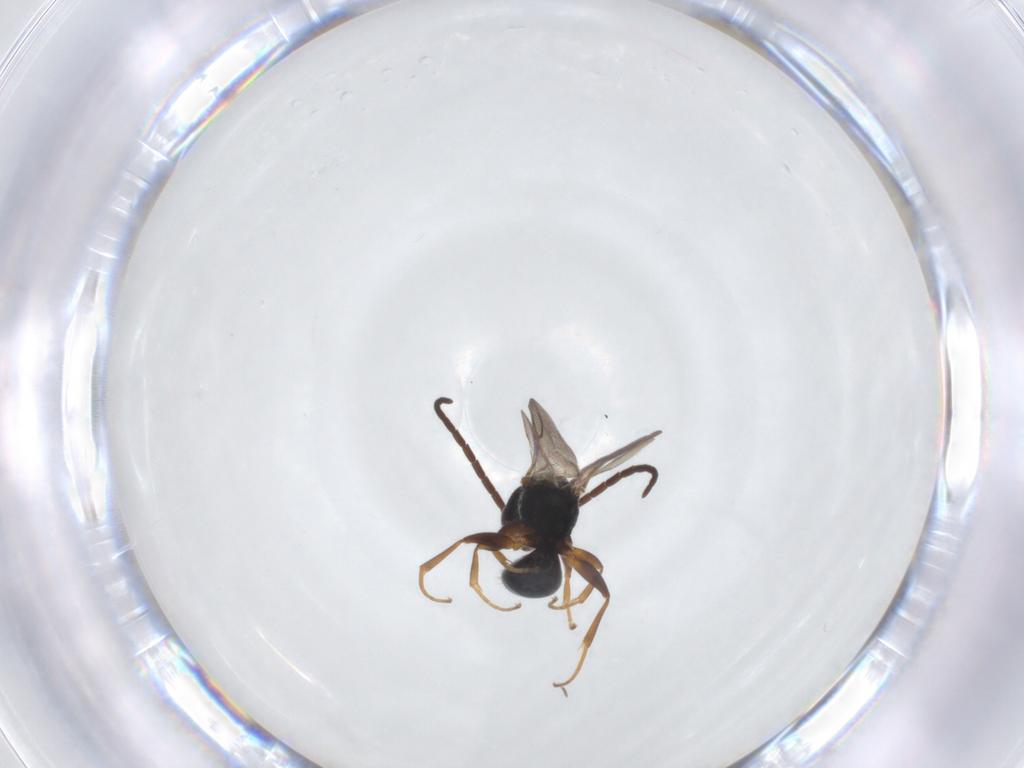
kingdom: Animalia
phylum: Arthropoda
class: Insecta
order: Hymenoptera
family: Bethylidae
